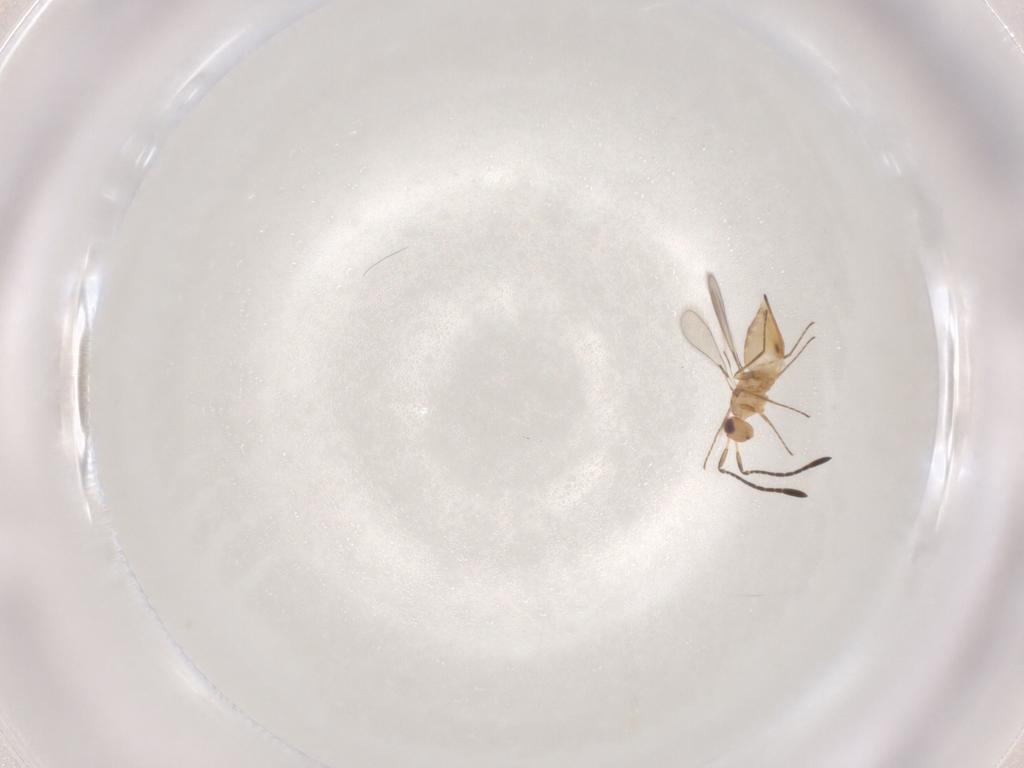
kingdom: Animalia
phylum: Arthropoda
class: Insecta
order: Hymenoptera
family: Mymaridae
